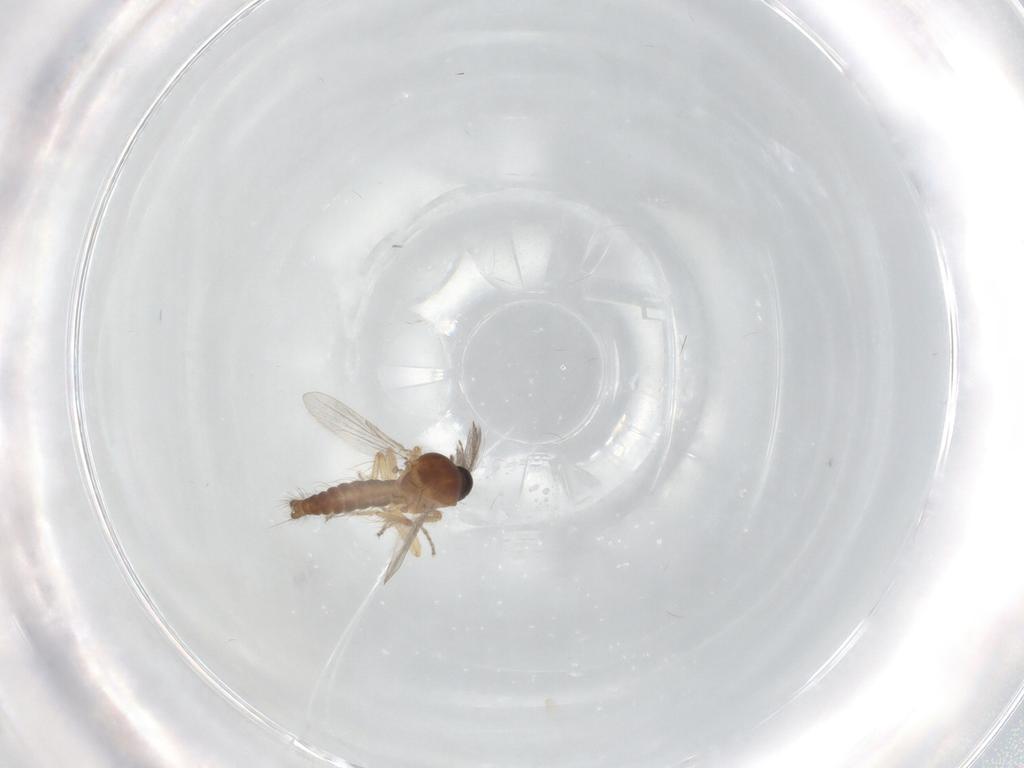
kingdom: Animalia
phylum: Arthropoda
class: Insecta
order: Diptera
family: Ceratopogonidae
